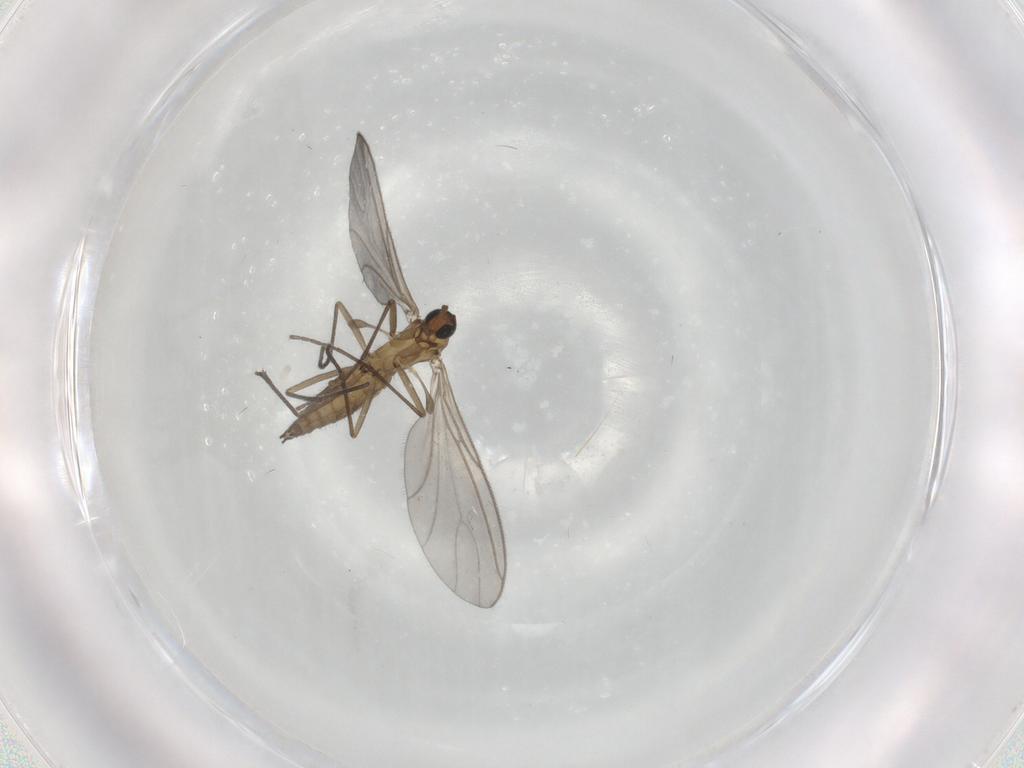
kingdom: Animalia
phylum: Arthropoda
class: Insecta
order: Diptera
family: Sciaridae
